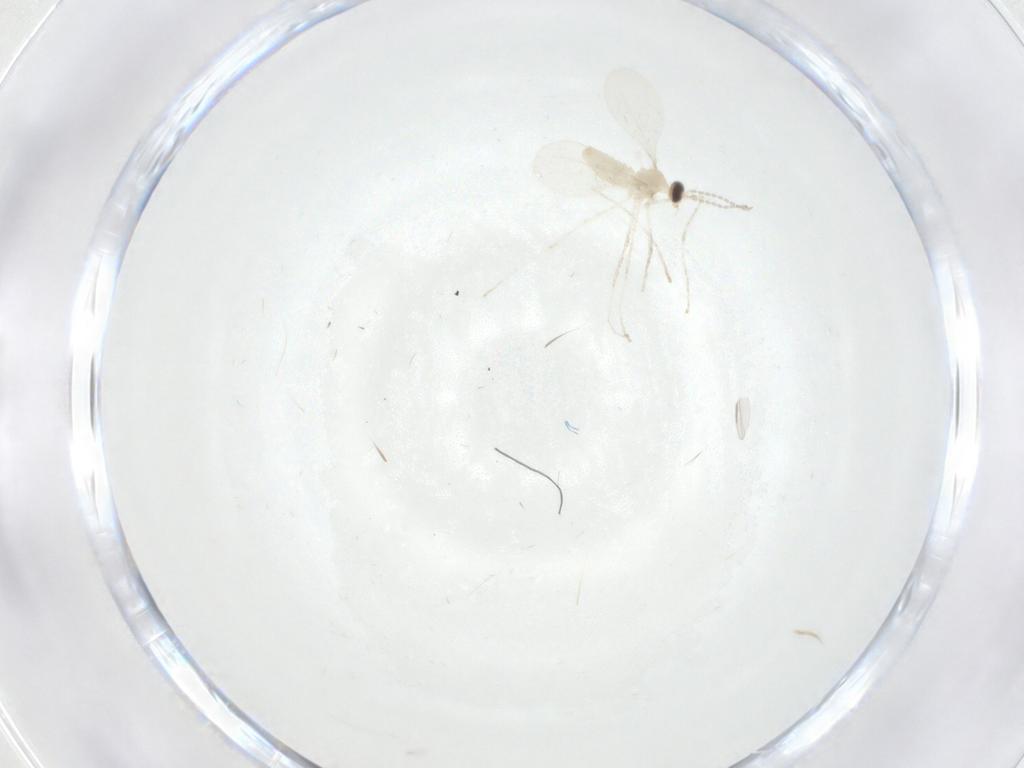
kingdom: Animalia
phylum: Arthropoda
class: Insecta
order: Diptera
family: Cecidomyiidae
